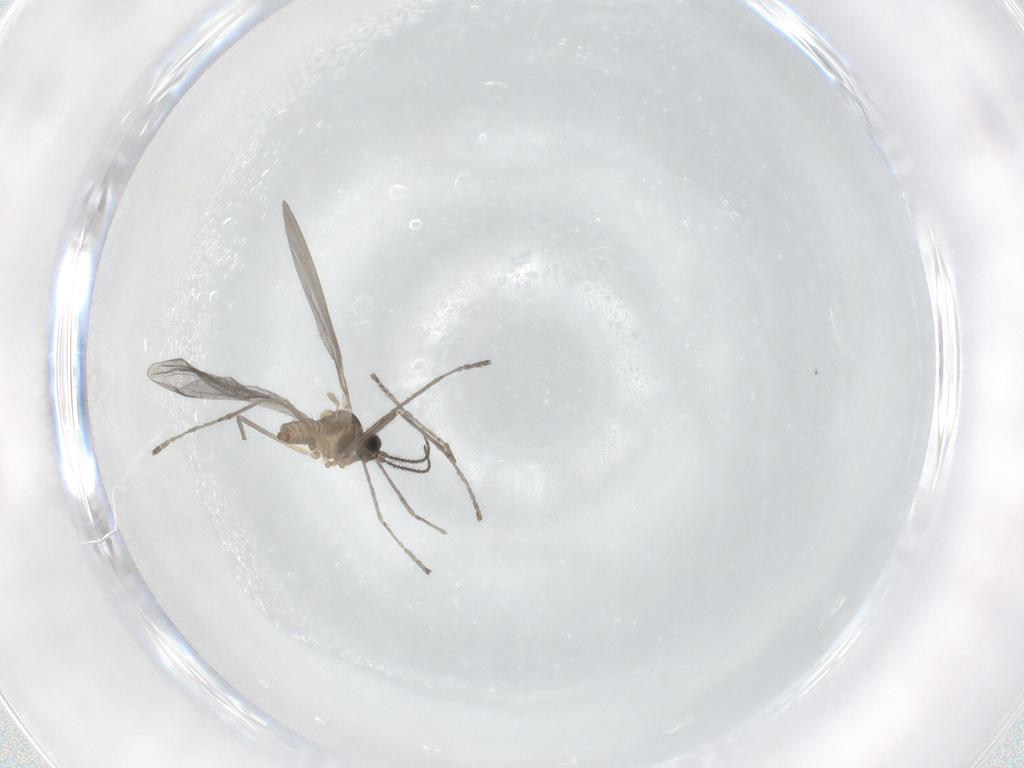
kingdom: Animalia
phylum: Arthropoda
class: Insecta
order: Diptera
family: Cecidomyiidae
